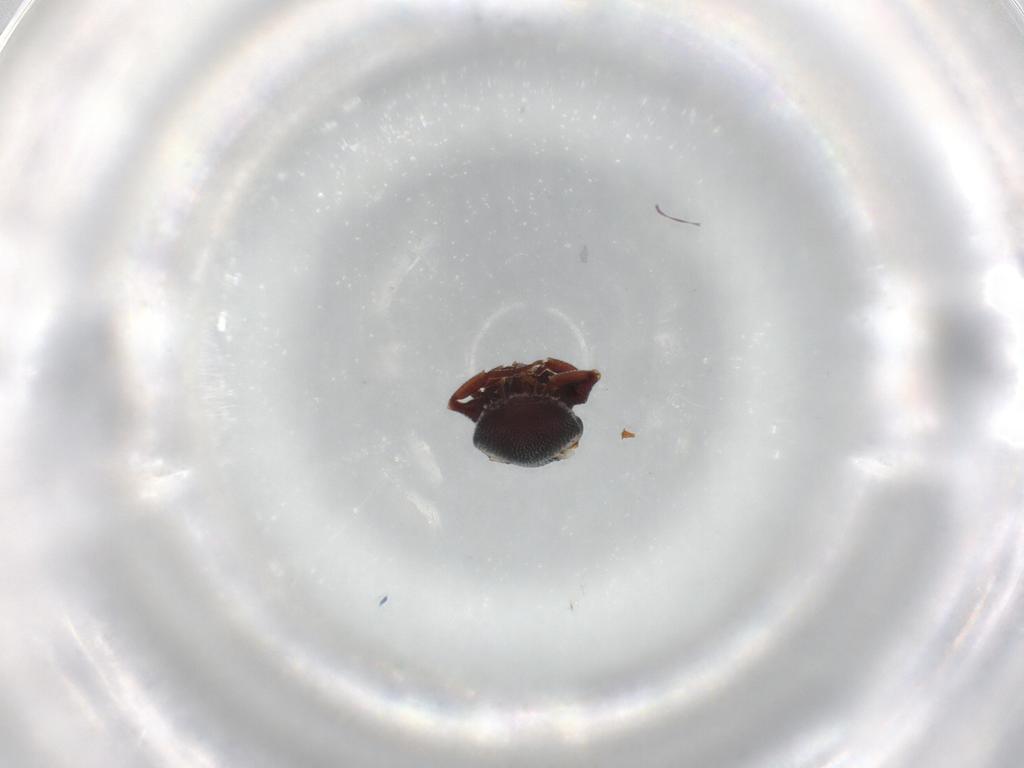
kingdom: Animalia
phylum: Arthropoda
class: Insecta
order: Hymenoptera
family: Formicidae
